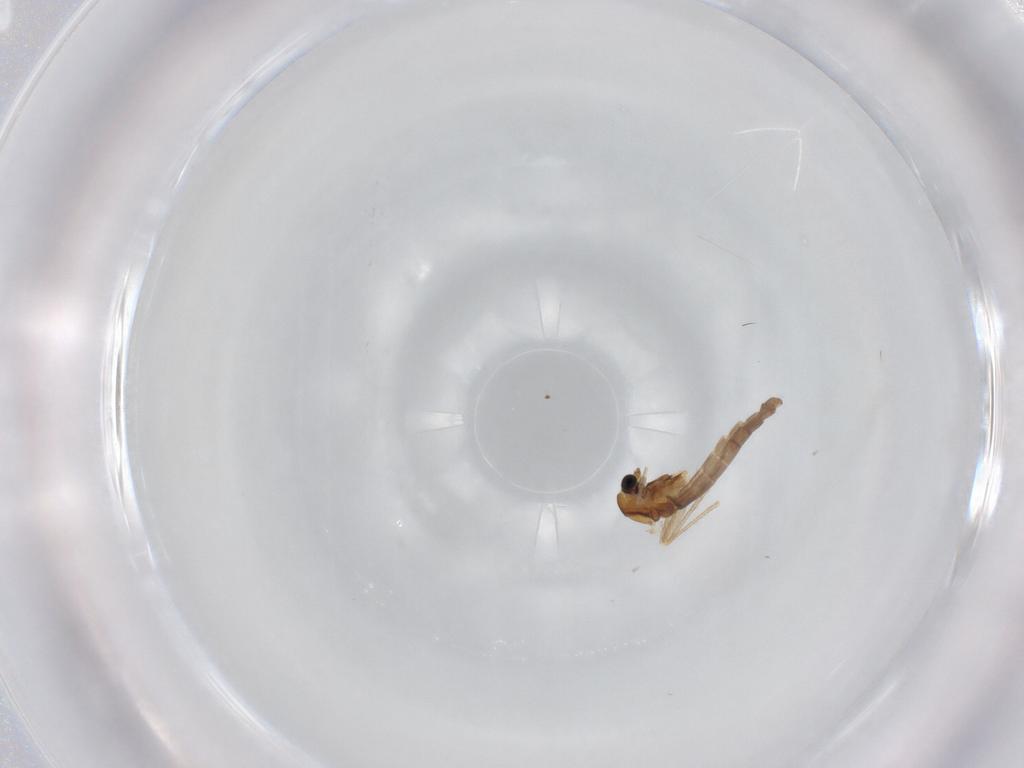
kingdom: Animalia
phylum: Arthropoda
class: Insecta
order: Diptera
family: Chironomidae
